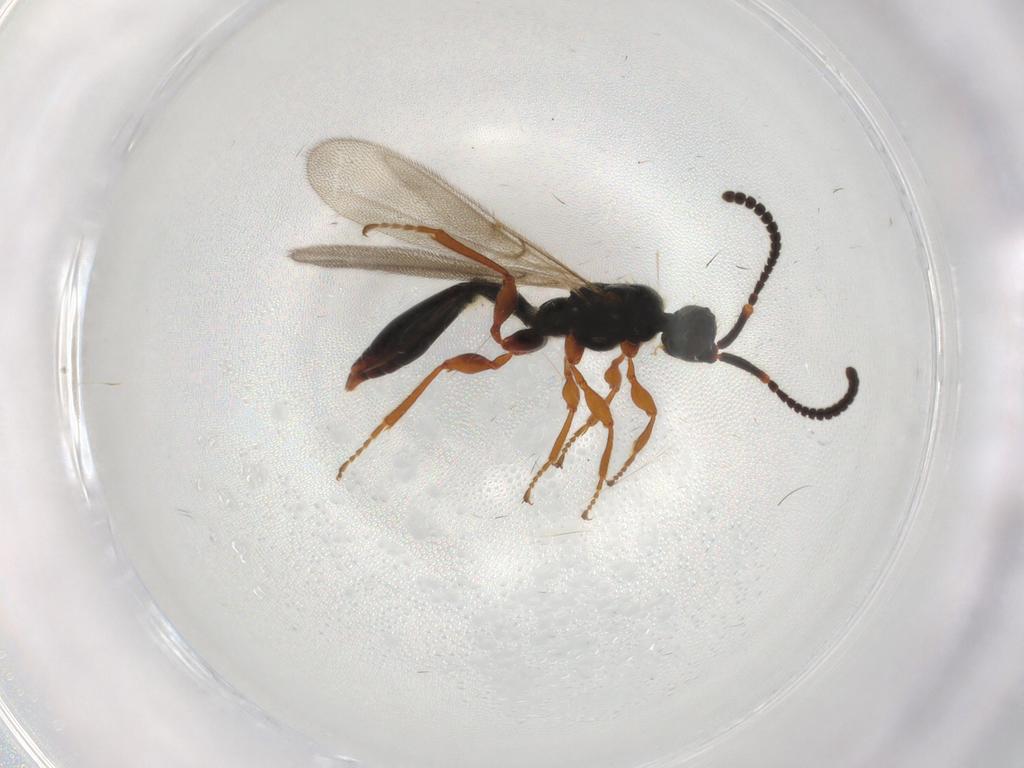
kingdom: Animalia
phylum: Arthropoda
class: Insecta
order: Hymenoptera
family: Diapriidae
